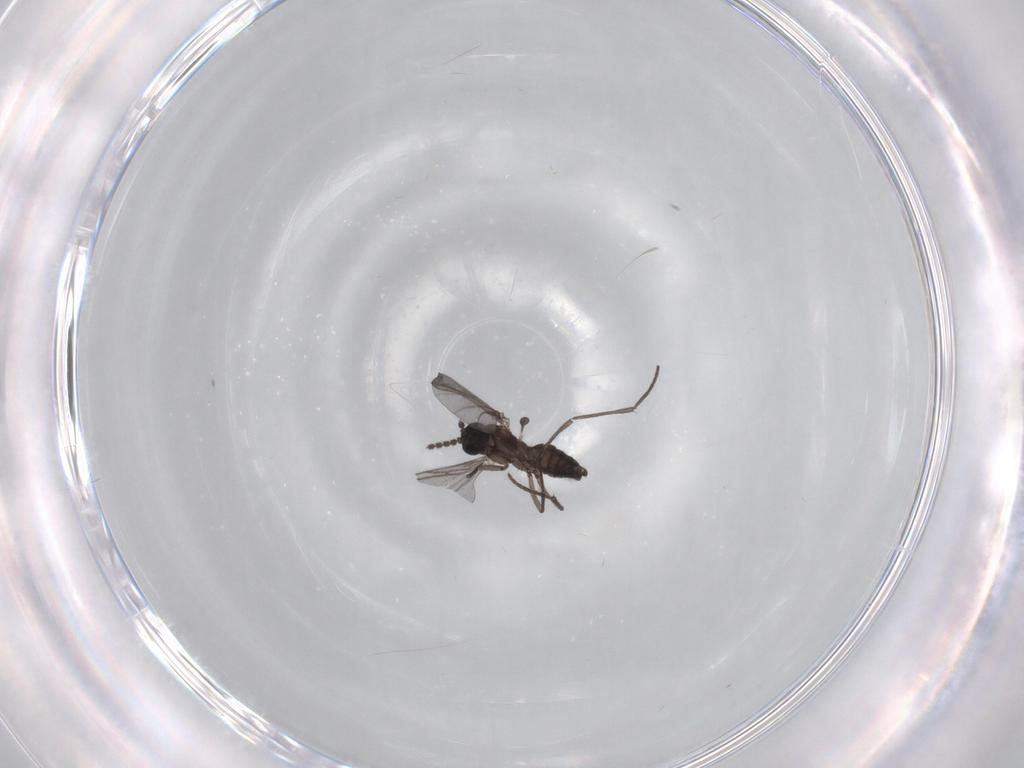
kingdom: Animalia
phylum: Arthropoda
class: Insecta
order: Diptera
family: Phoridae
